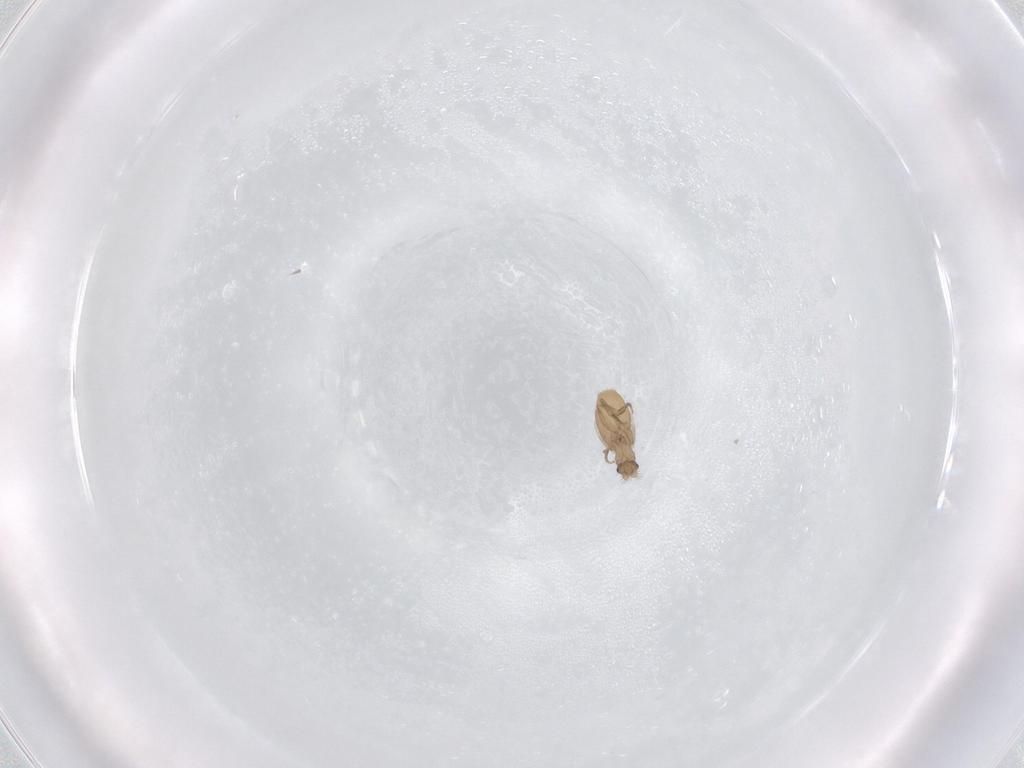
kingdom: Animalia
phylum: Arthropoda
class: Insecta
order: Diptera
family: Phoridae
